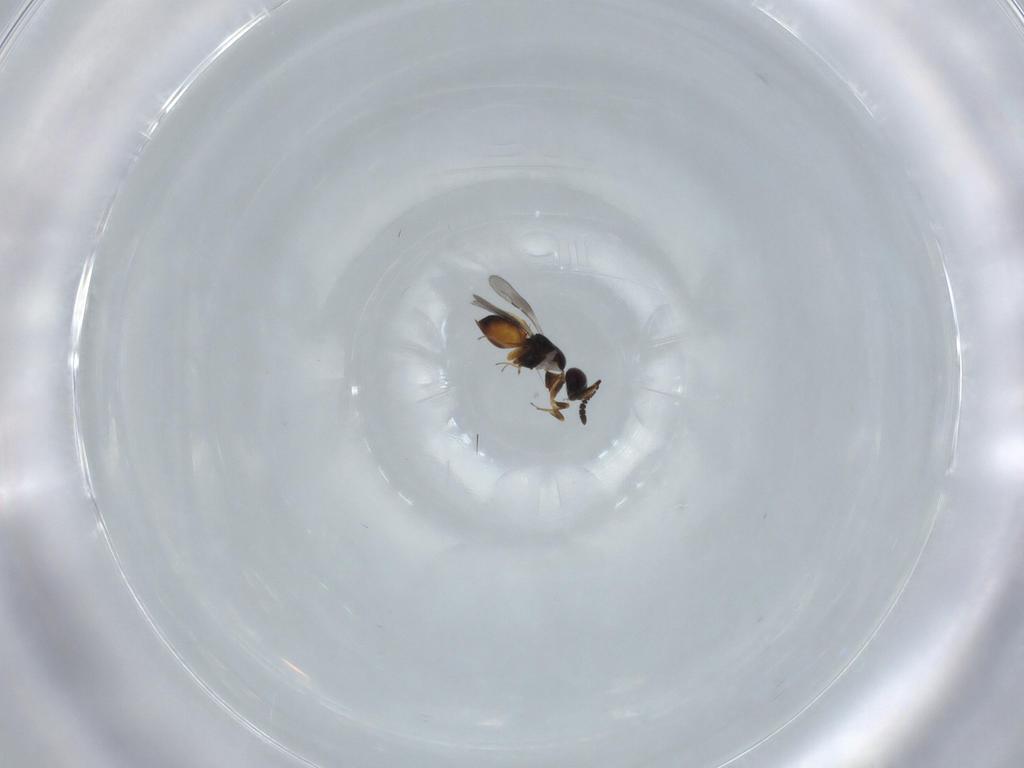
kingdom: Animalia
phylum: Arthropoda
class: Insecta
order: Hymenoptera
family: Ceraphronidae
